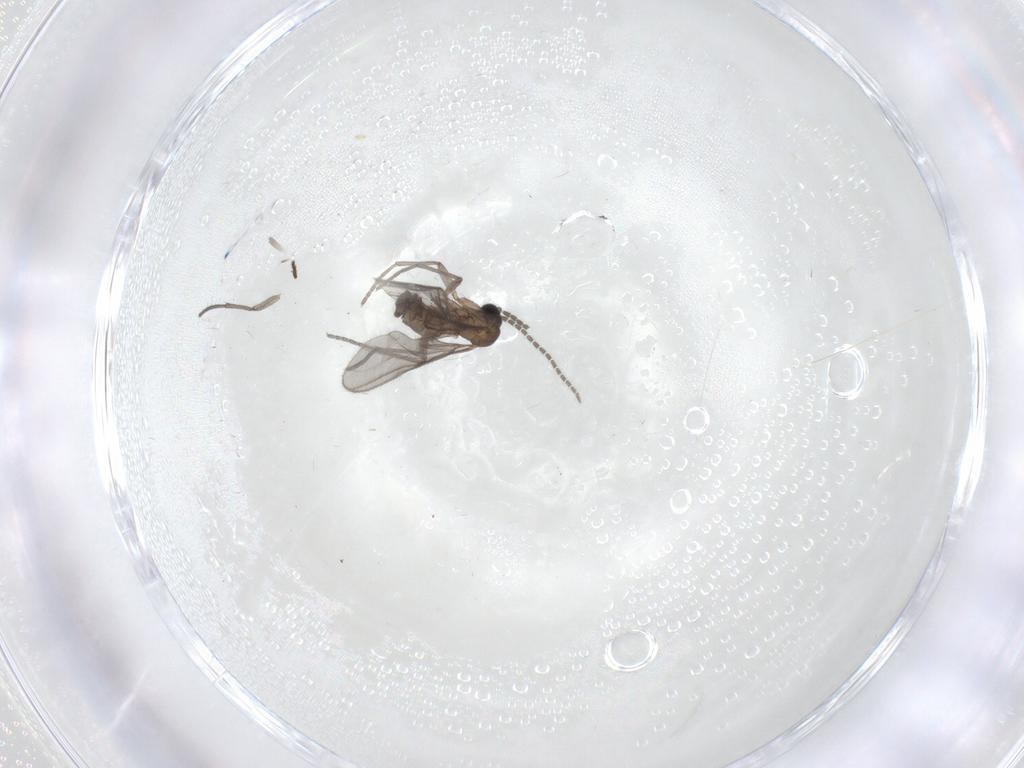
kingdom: Animalia
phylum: Arthropoda
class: Insecta
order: Diptera
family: Sciaridae
